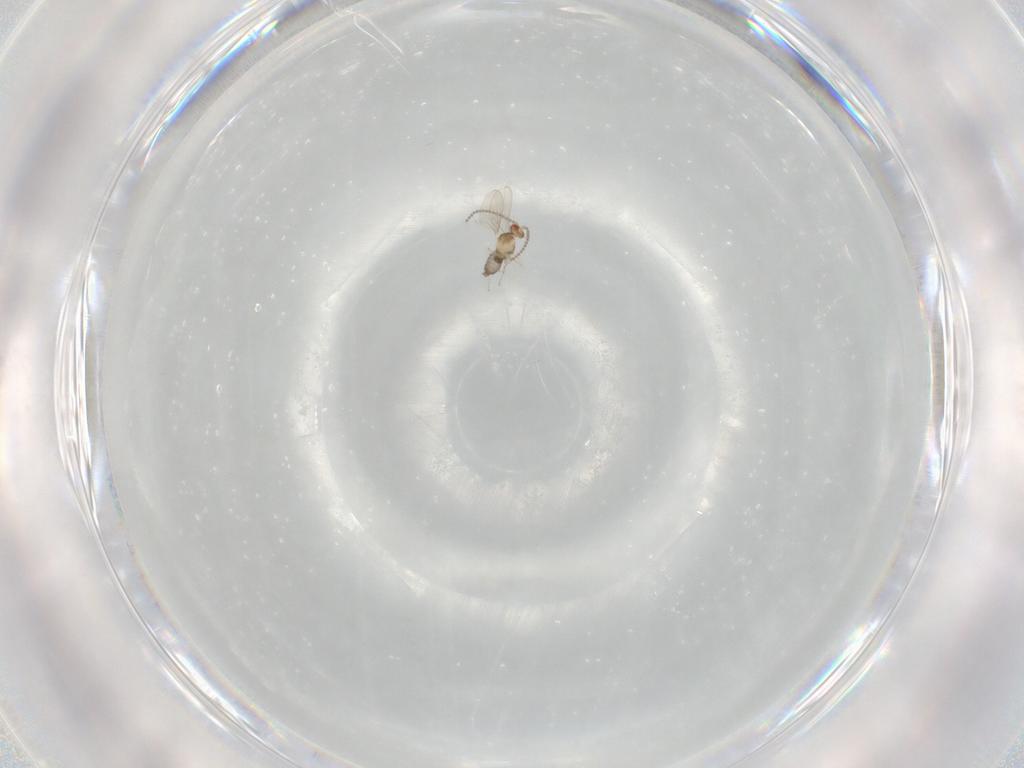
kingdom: Animalia
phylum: Arthropoda
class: Insecta
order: Diptera
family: Cecidomyiidae
